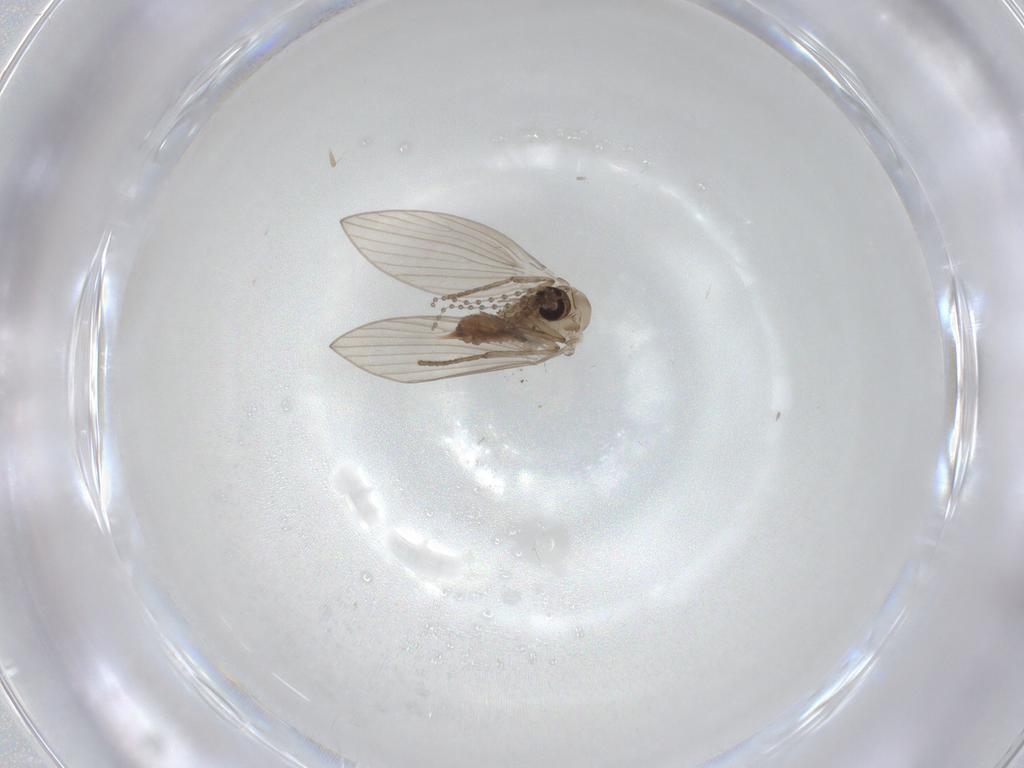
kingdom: Animalia
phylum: Arthropoda
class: Insecta
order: Diptera
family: Psychodidae
